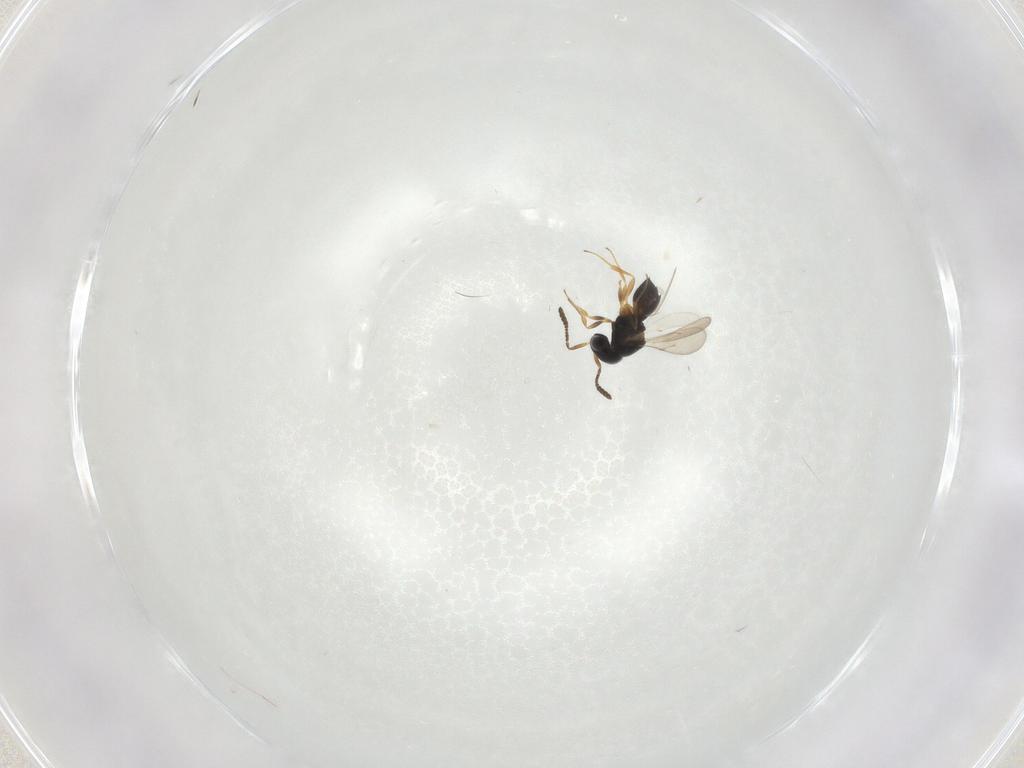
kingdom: Animalia
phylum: Arthropoda
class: Insecta
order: Hymenoptera
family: Scelionidae
